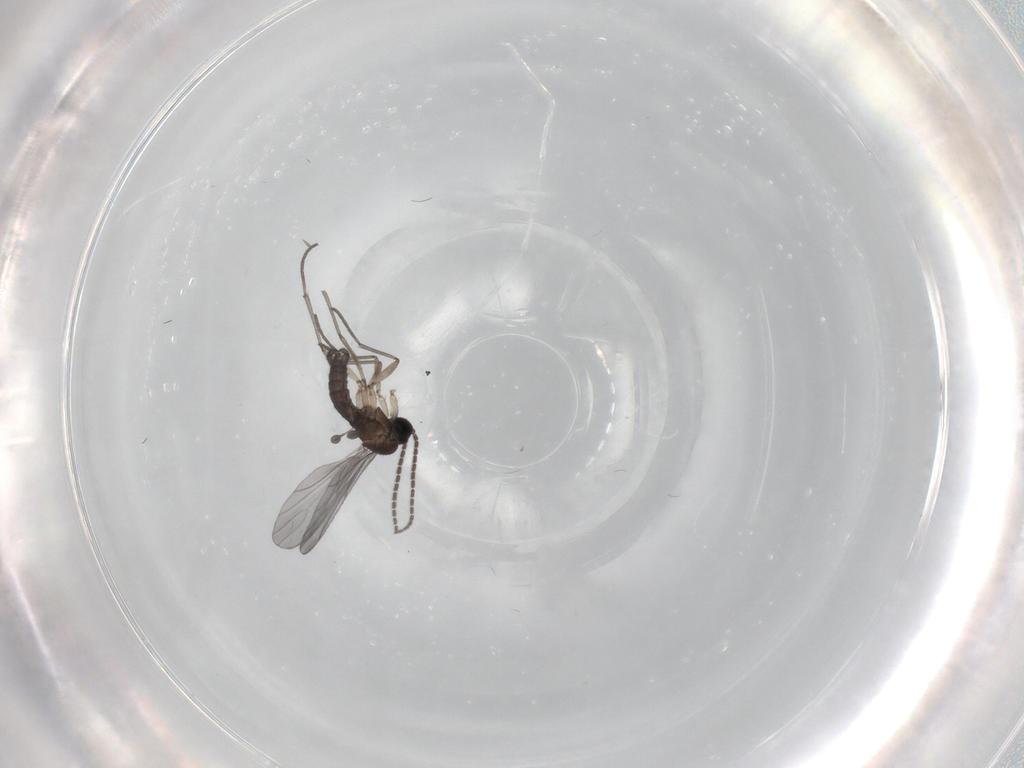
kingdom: Animalia
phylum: Arthropoda
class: Insecta
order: Diptera
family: Sciaridae
